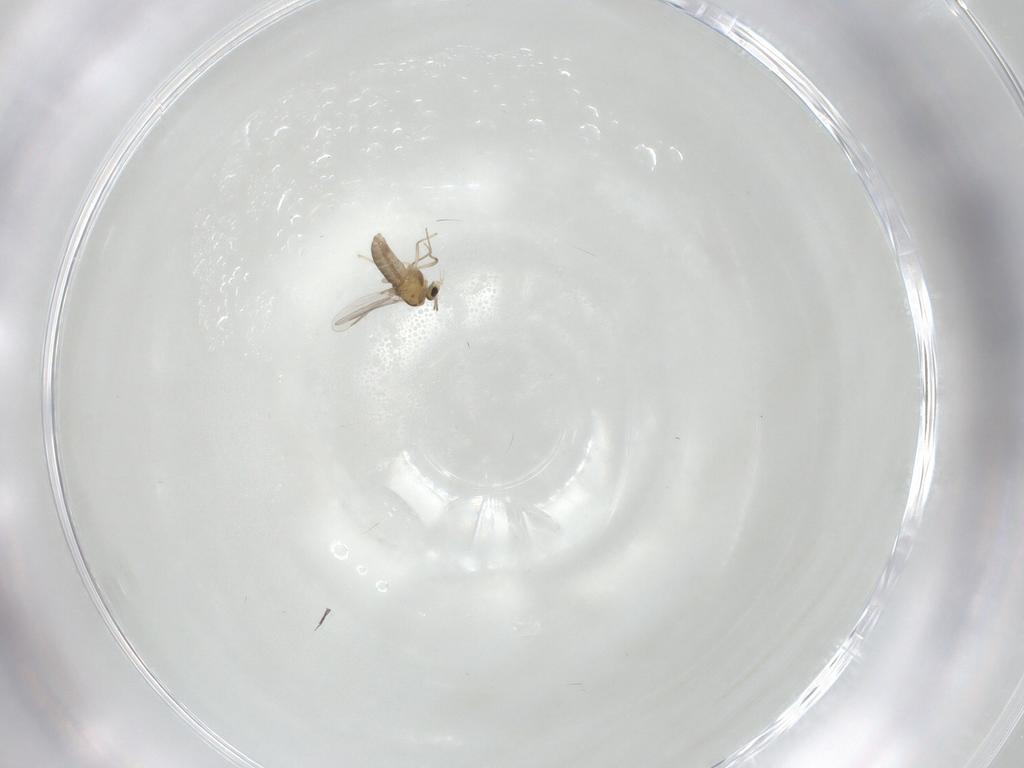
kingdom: Animalia
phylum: Arthropoda
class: Insecta
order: Diptera
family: Chironomidae
